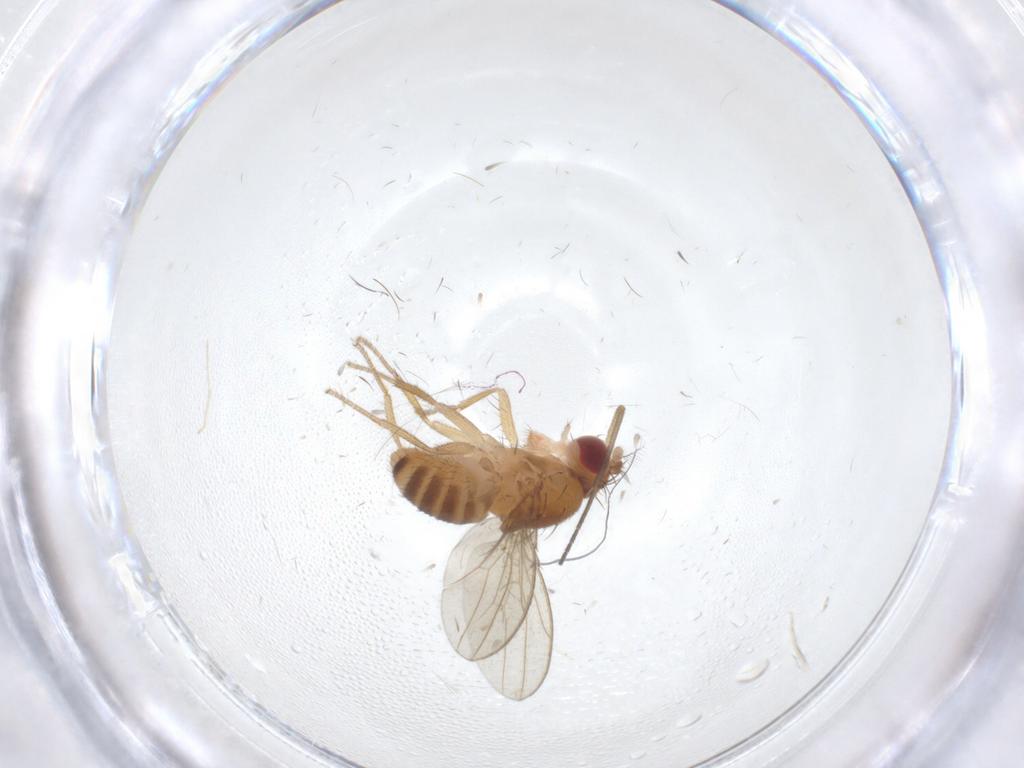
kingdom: Animalia
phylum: Arthropoda
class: Insecta
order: Diptera
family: Drosophilidae
